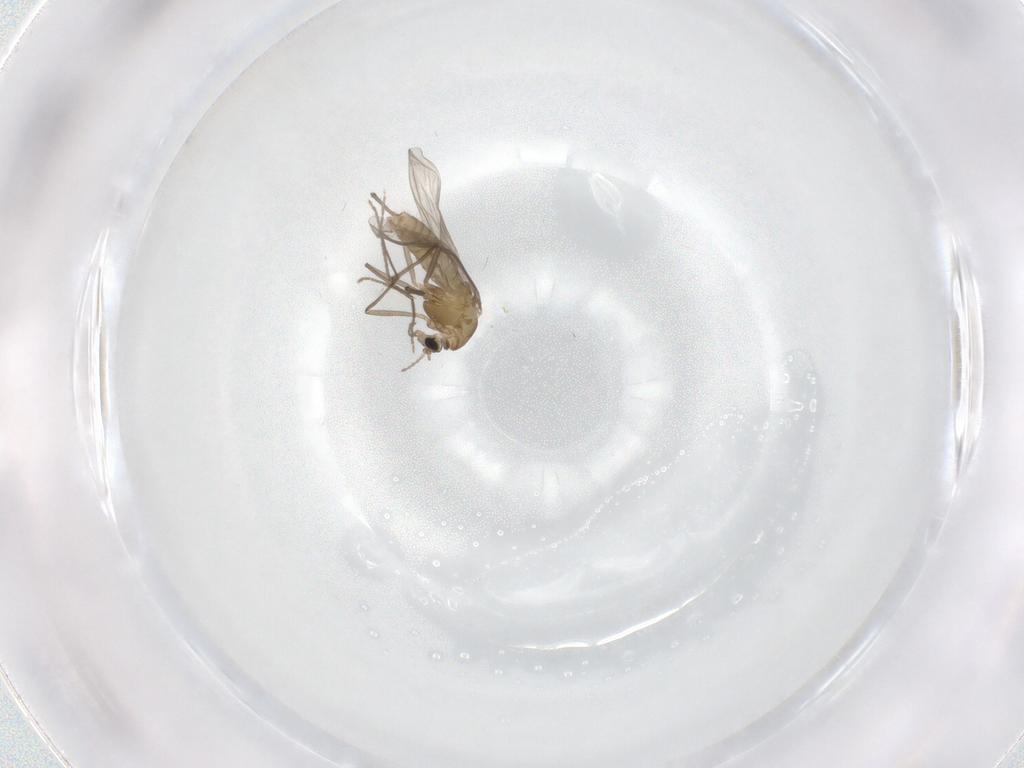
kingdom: Animalia
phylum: Arthropoda
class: Insecta
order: Diptera
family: Chironomidae
